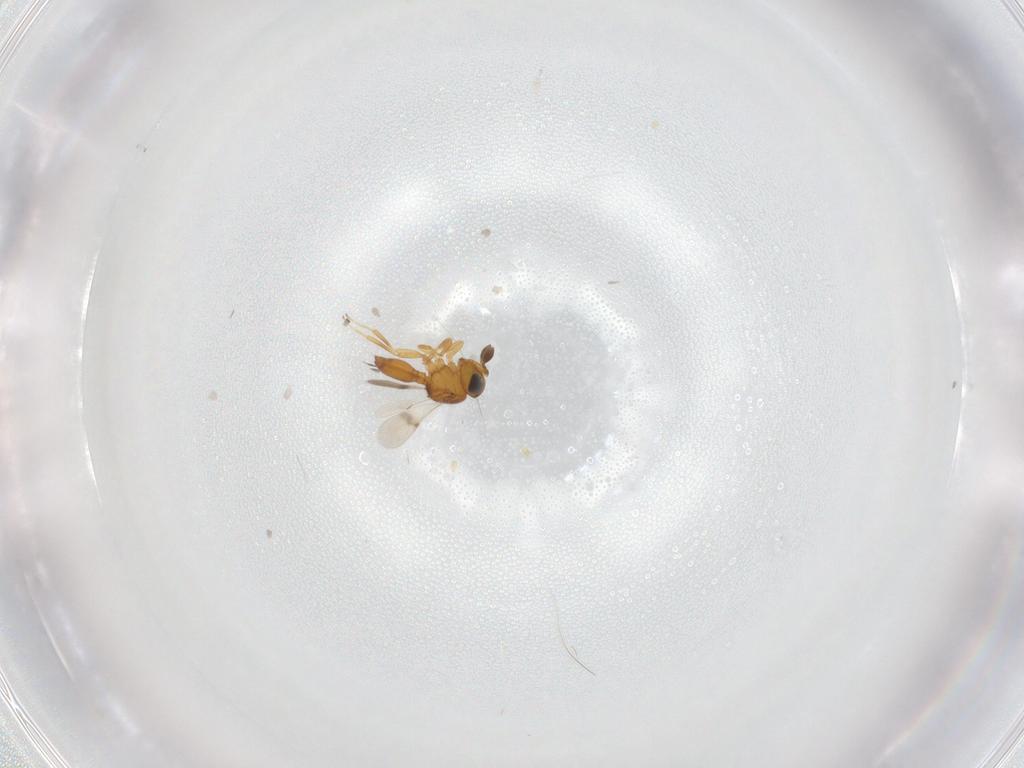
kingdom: Animalia
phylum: Arthropoda
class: Insecta
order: Hymenoptera
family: Scelionidae
